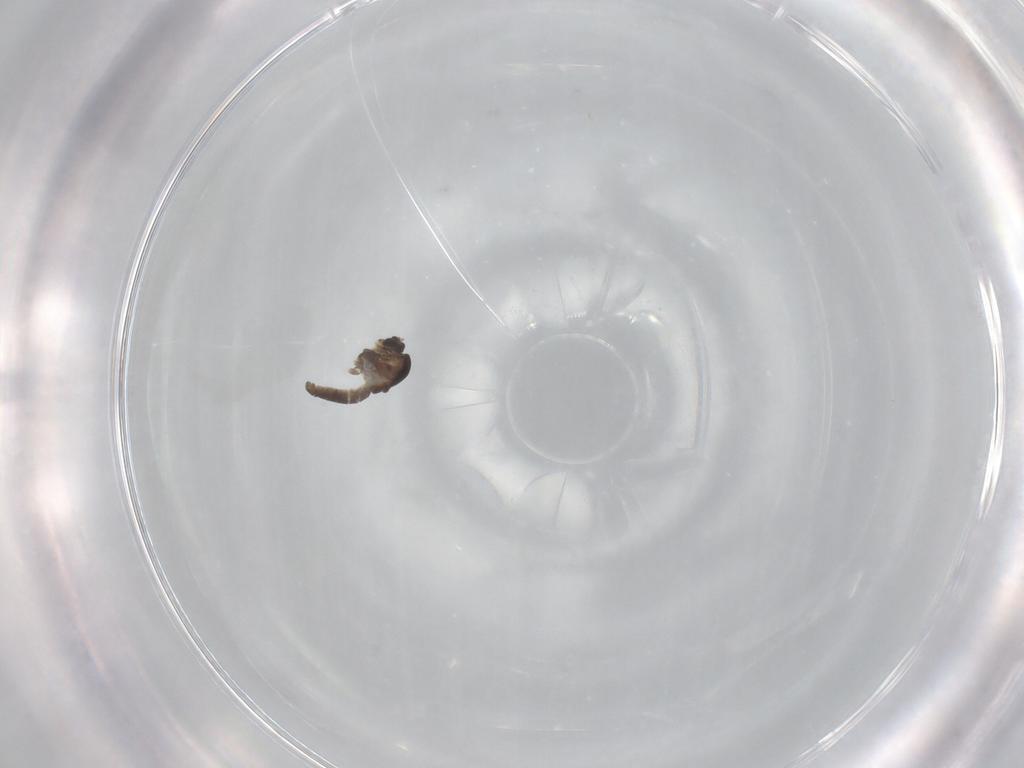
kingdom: Animalia
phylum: Arthropoda
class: Insecta
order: Diptera
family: Chironomidae
